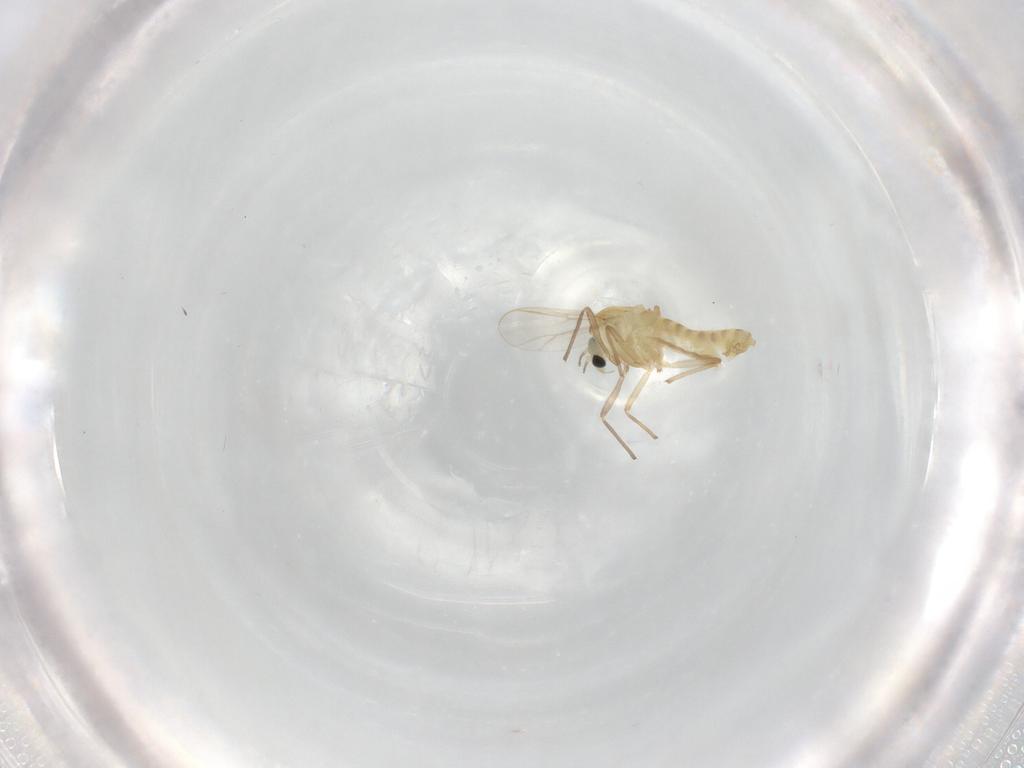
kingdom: Animalia
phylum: Arthropoda
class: Insecta
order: Diptera
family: Chironomidae
